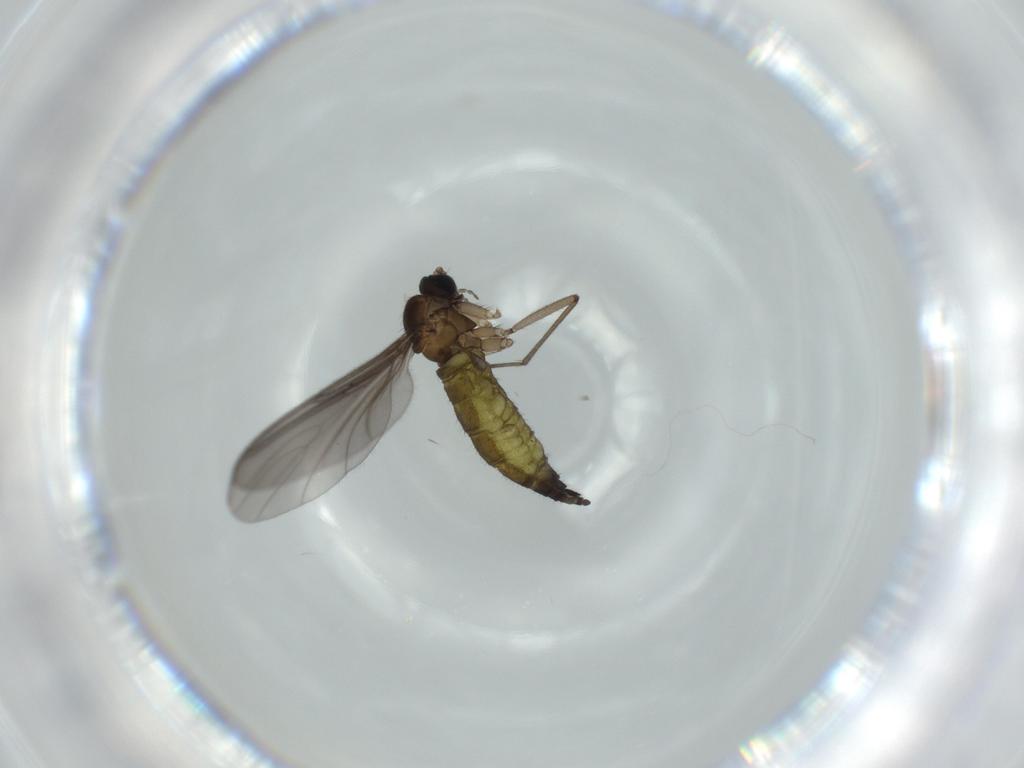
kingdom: Animalia
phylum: Arthropoda
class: Insecta
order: Diptera
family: Sciaridae
